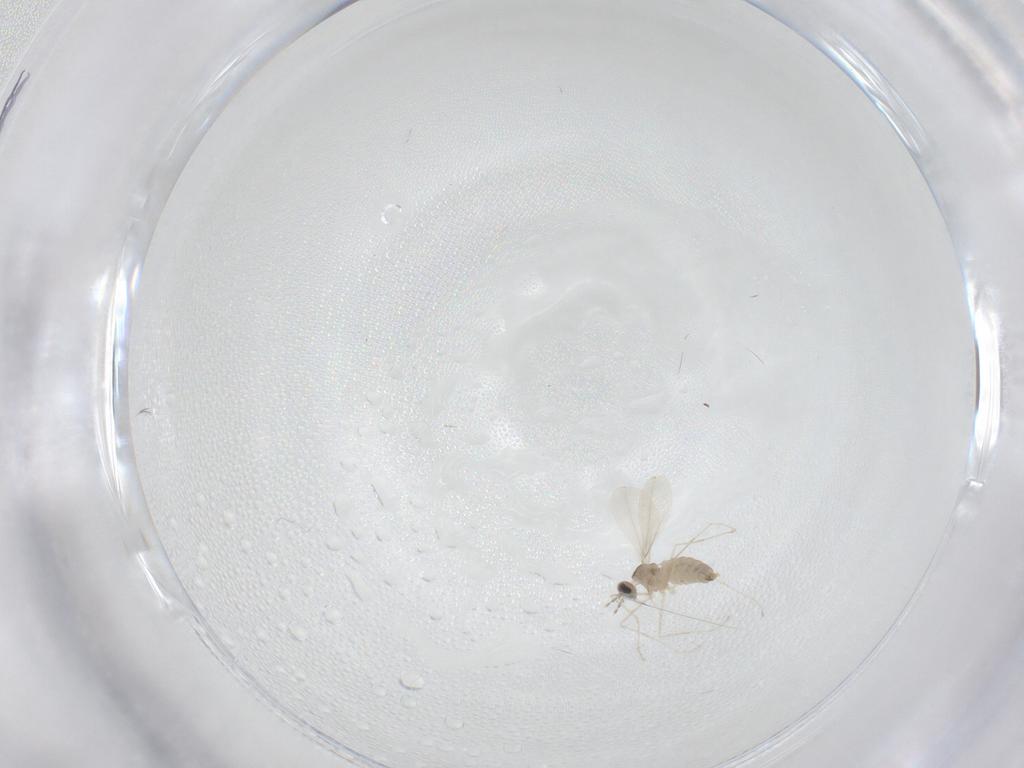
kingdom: Animalia
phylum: Arthropoda
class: Insecta
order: Diptera
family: Cecidomyiidae
